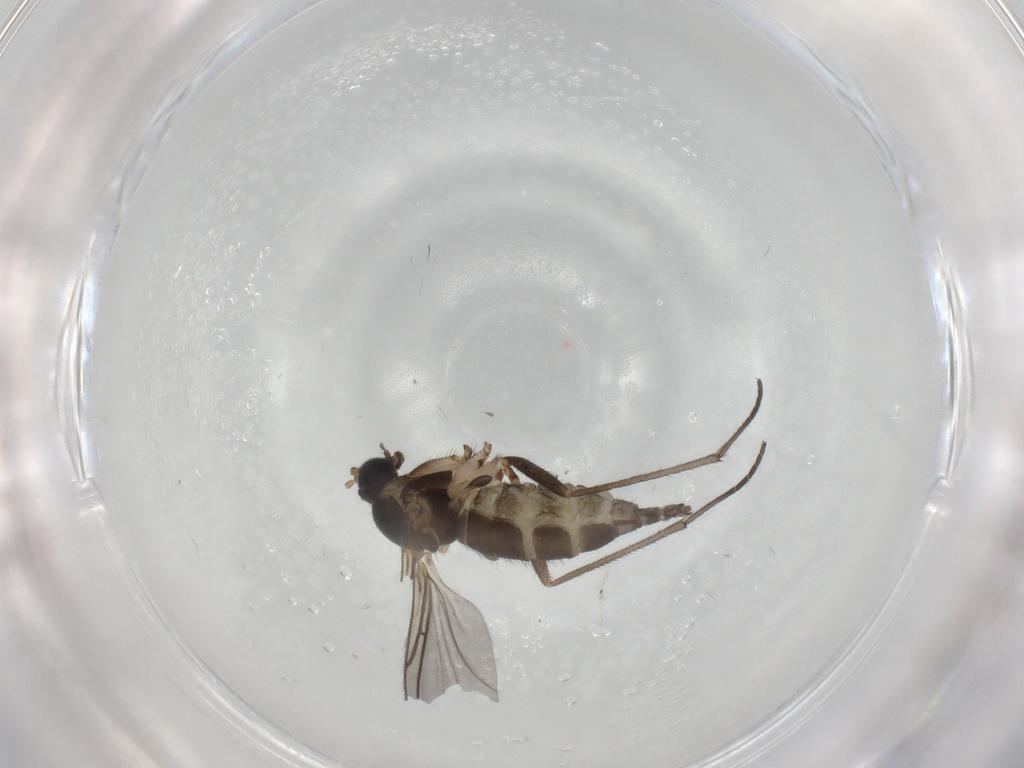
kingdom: Animalia
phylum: Arthropoda
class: Insecta
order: Diptera
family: Sciaridae
